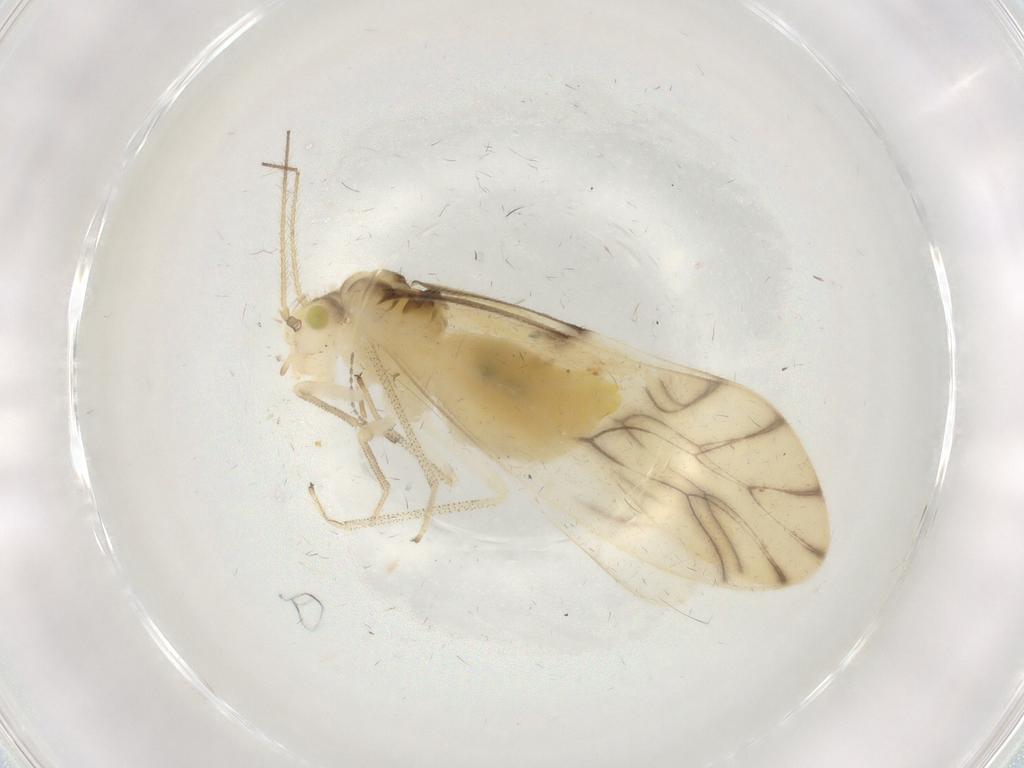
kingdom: Animalia
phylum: Arthropoda
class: Insecta
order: Psocodea
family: Caeciliusidae
